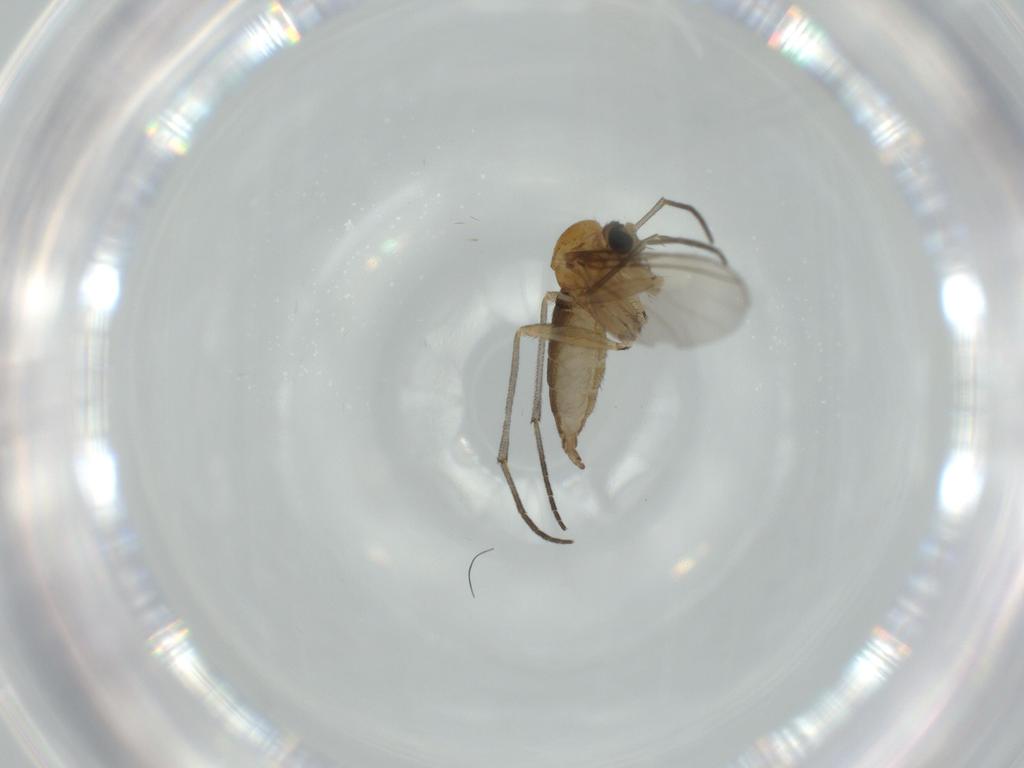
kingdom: Animalia
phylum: Arthropoda
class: Insecta
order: Diptera
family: Sciaridae
